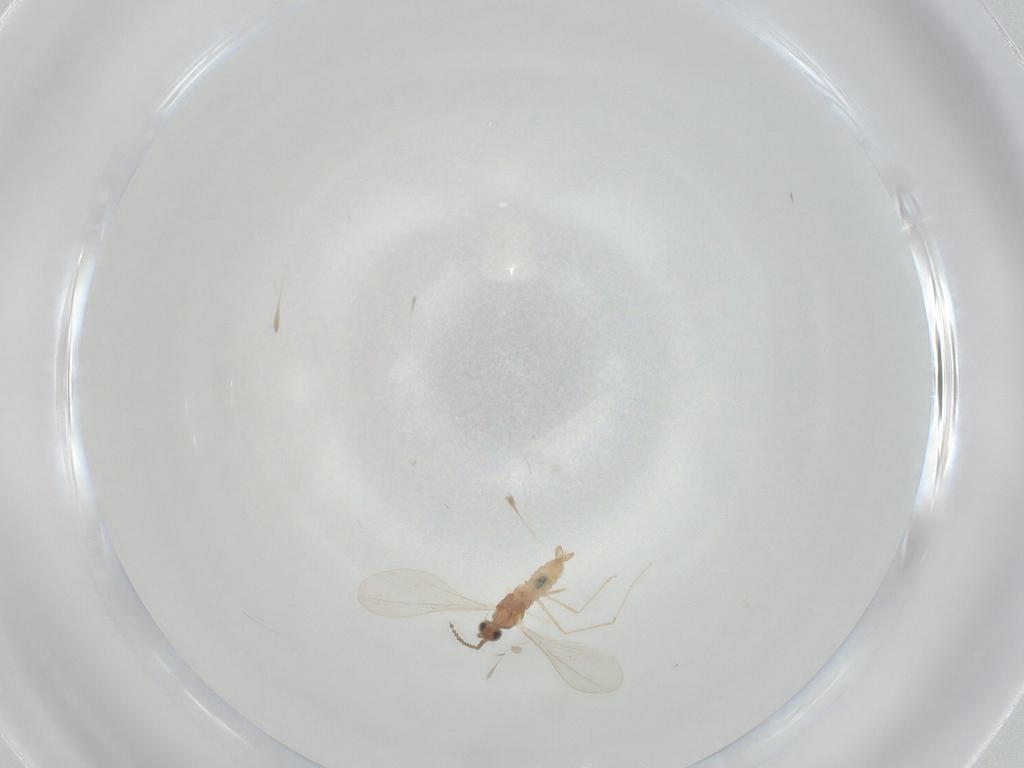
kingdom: Animalia
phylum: Arthropoda
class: Insecta
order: Diptera
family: Cecidomyiidae
